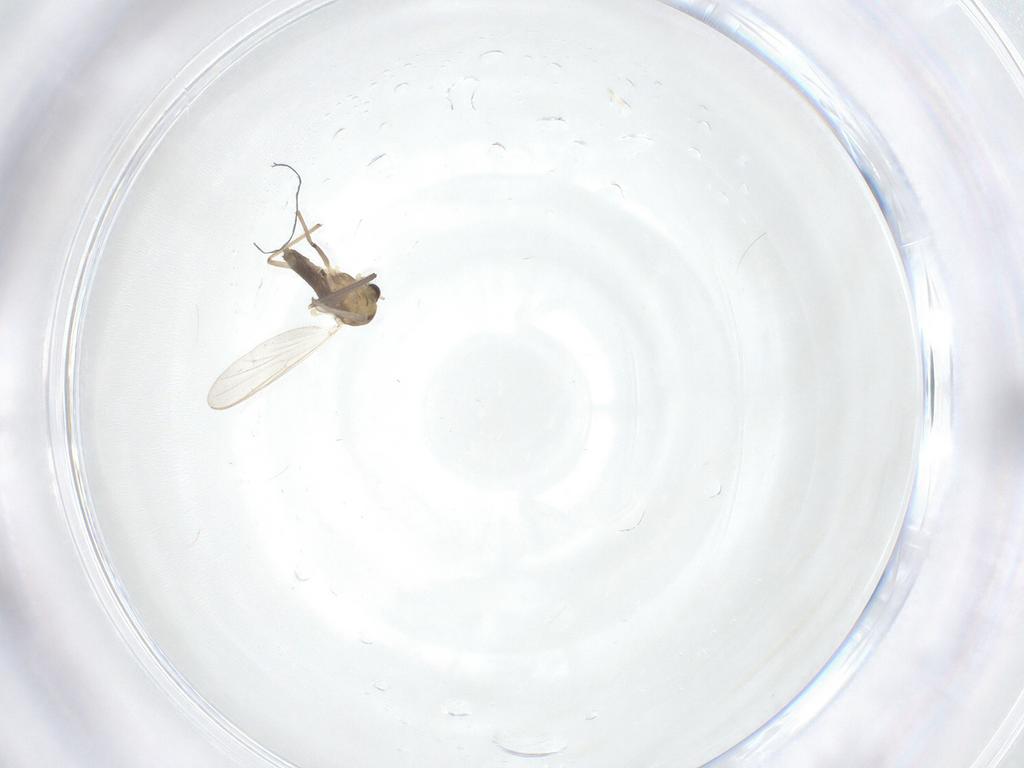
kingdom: Animalia
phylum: Arthropoda
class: Insecta
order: Diptera
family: Chironomidae
